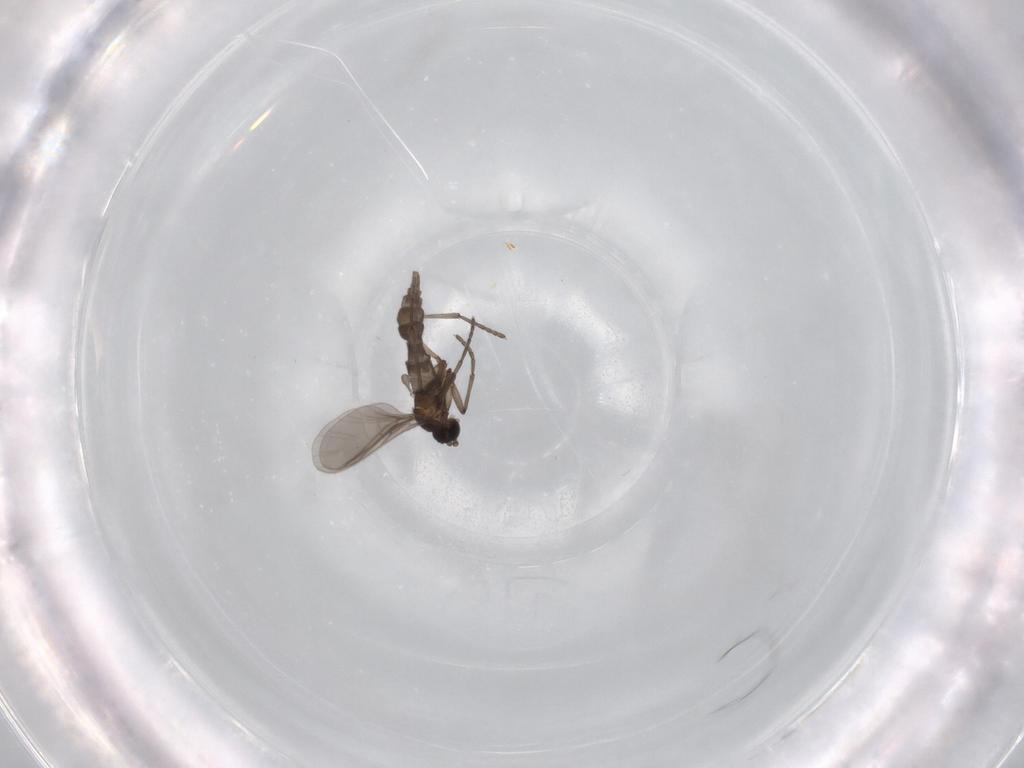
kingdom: Animalia
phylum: Arthropoda
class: Insecta
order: Diptera
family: Sciaridae
